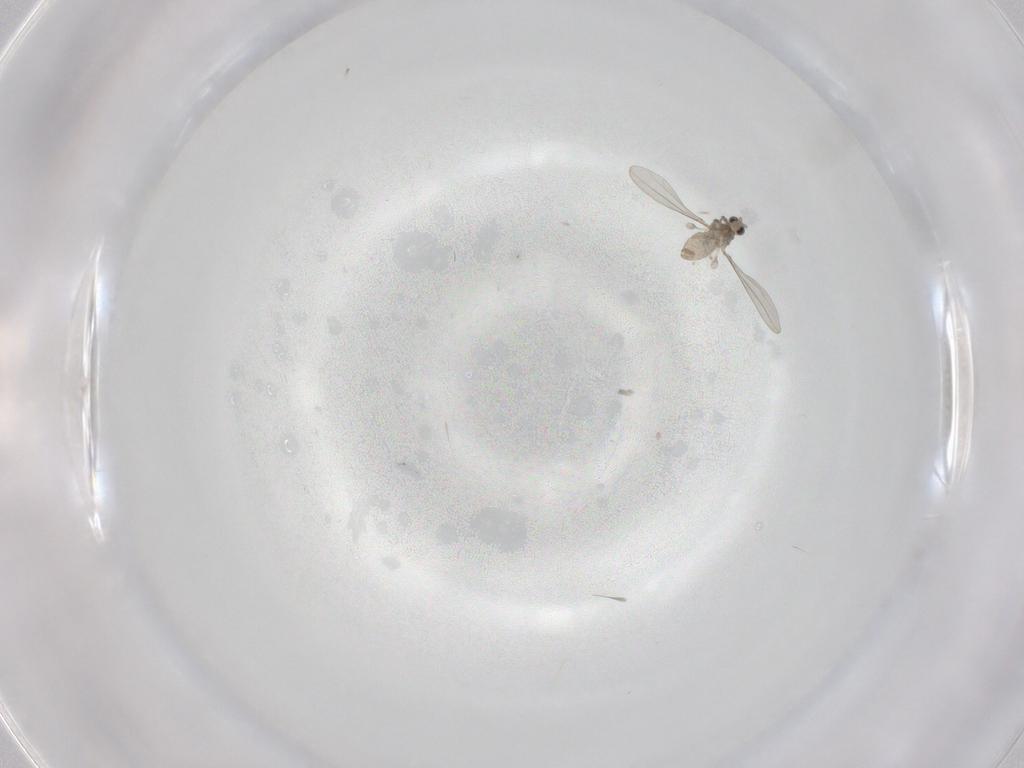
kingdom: Animalia
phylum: Arthropoda
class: Insecta
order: Diptera
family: Cecidomyiidae
